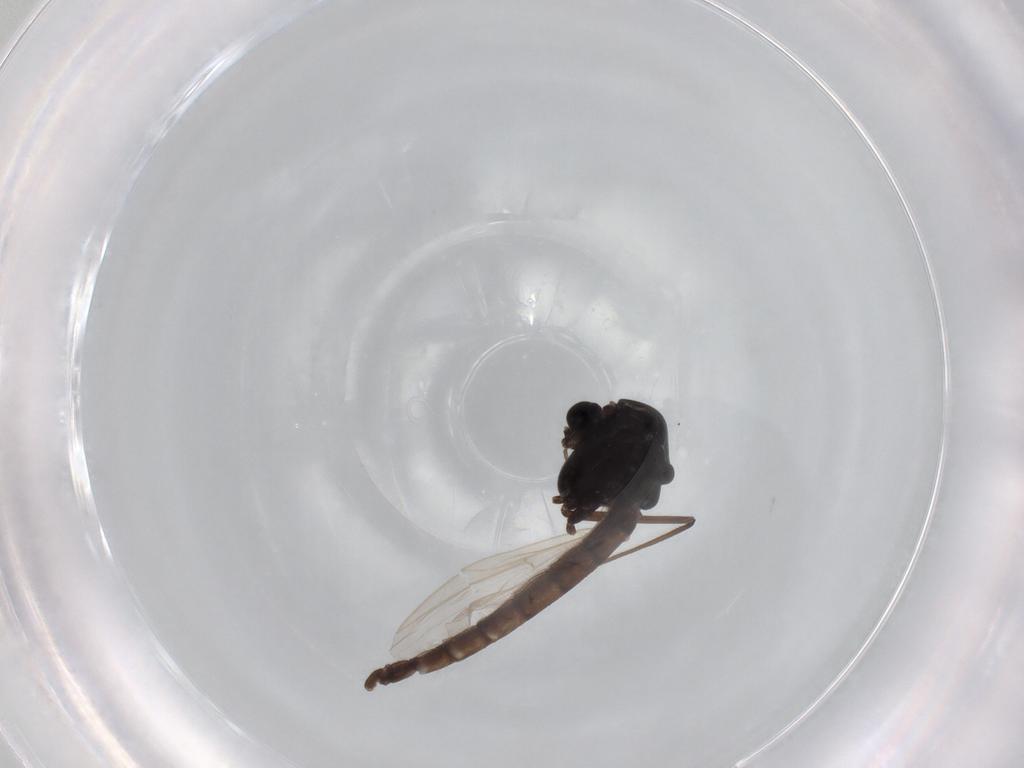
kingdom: Animalia
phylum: Arthropoda
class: Insecta
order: Diptera
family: Chironomidae
